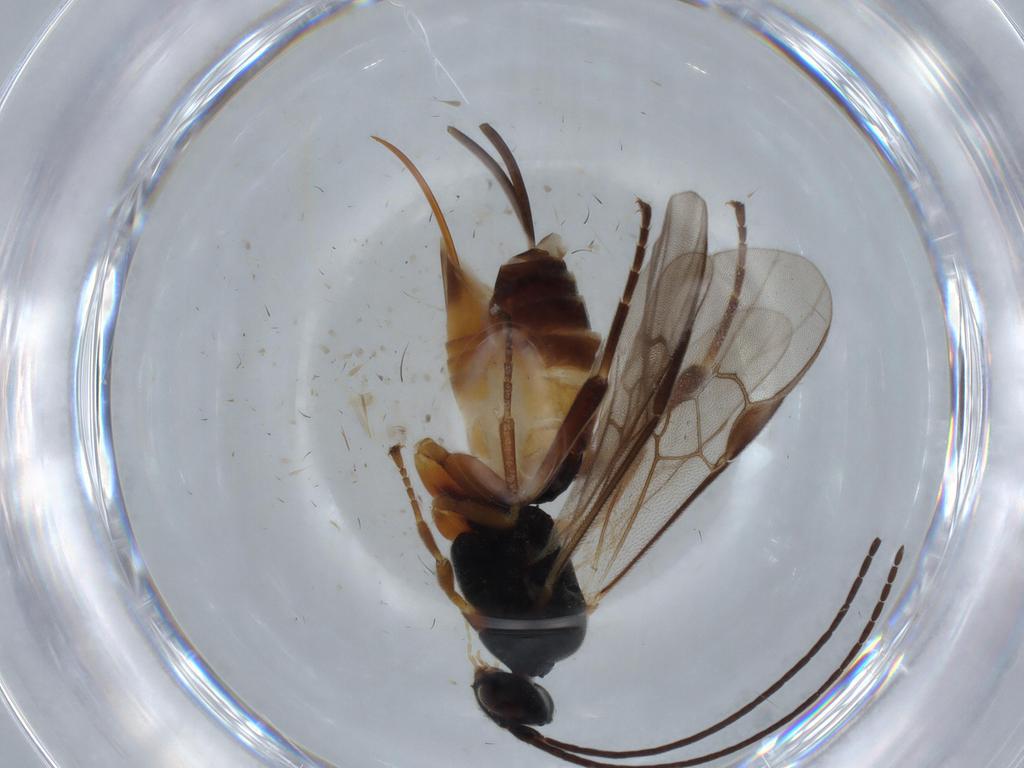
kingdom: Animalia
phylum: Arthropoda
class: Insecta
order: Hymenoptera
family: Braconidae
